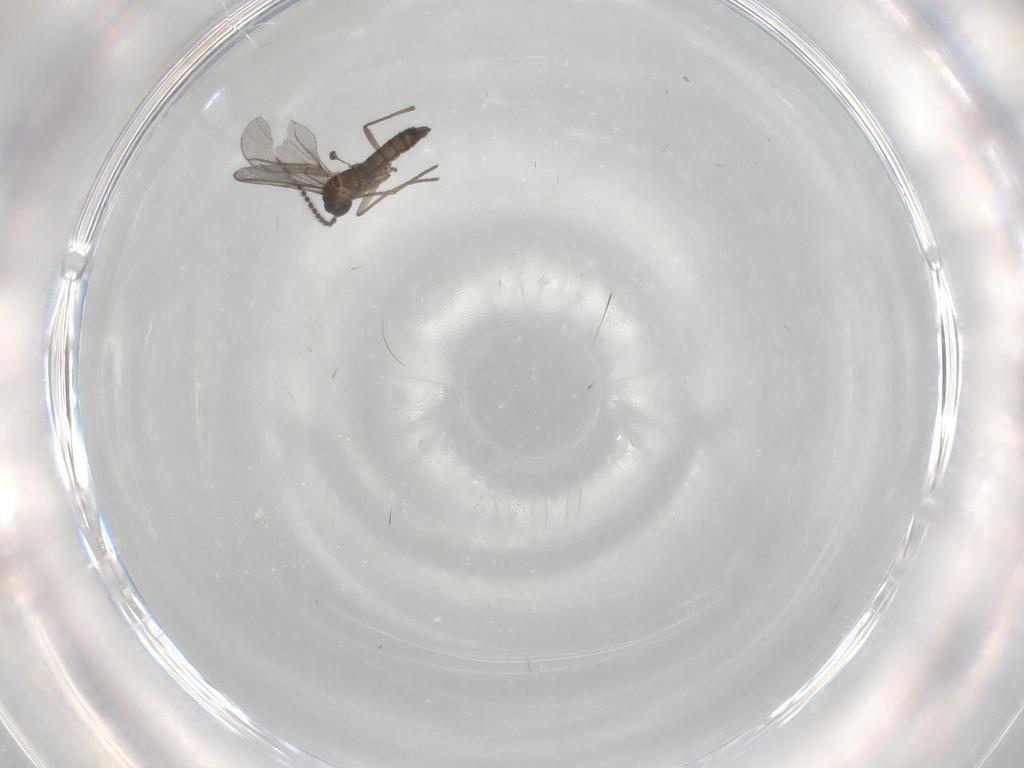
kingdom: Animalia
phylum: Arthropoda
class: Insecta
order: Diptera
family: Cecidomyiidae
